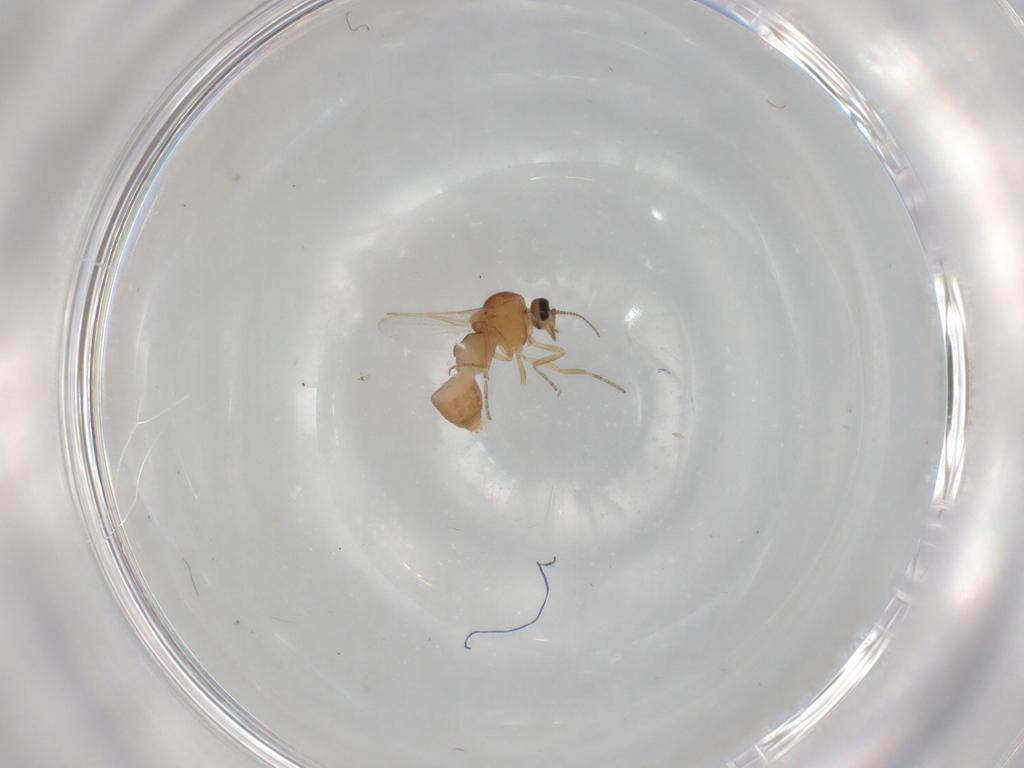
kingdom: Animalia
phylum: Arthropoda
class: Insecta
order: Diptera
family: Ceratopogonidae
